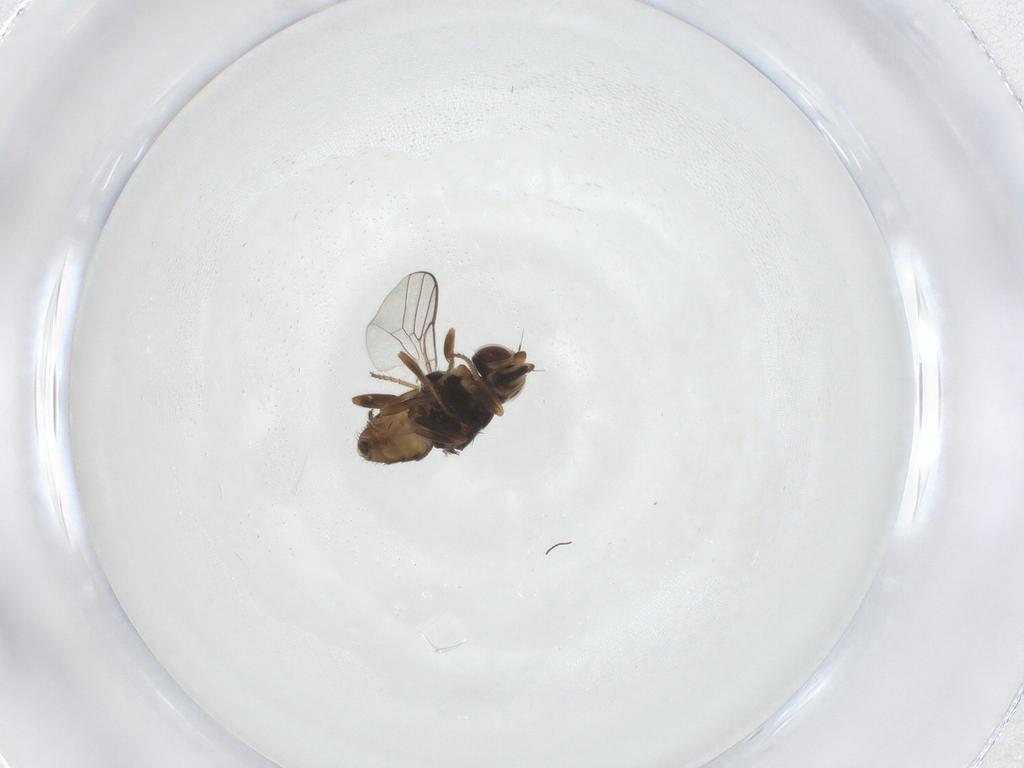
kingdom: Animalia
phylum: Arthropoda
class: Insecta
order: Diptera
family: Chloropidae
